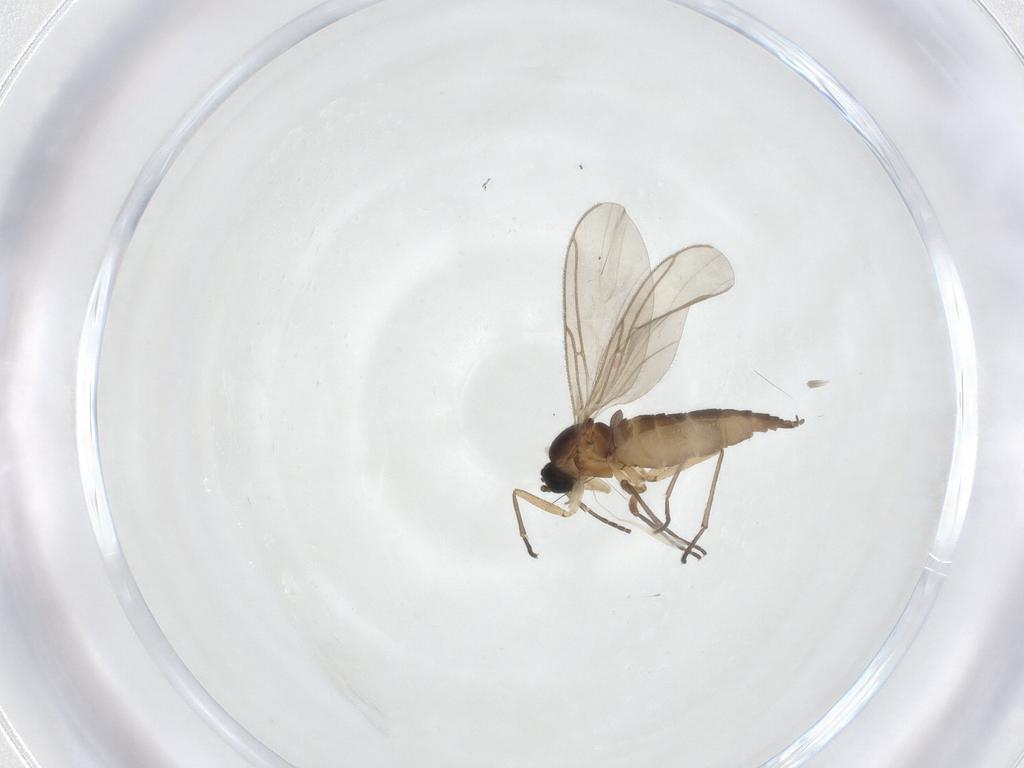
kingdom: Animalia
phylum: Arthropoda
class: Insecta
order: Diptera
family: Sciaridae
